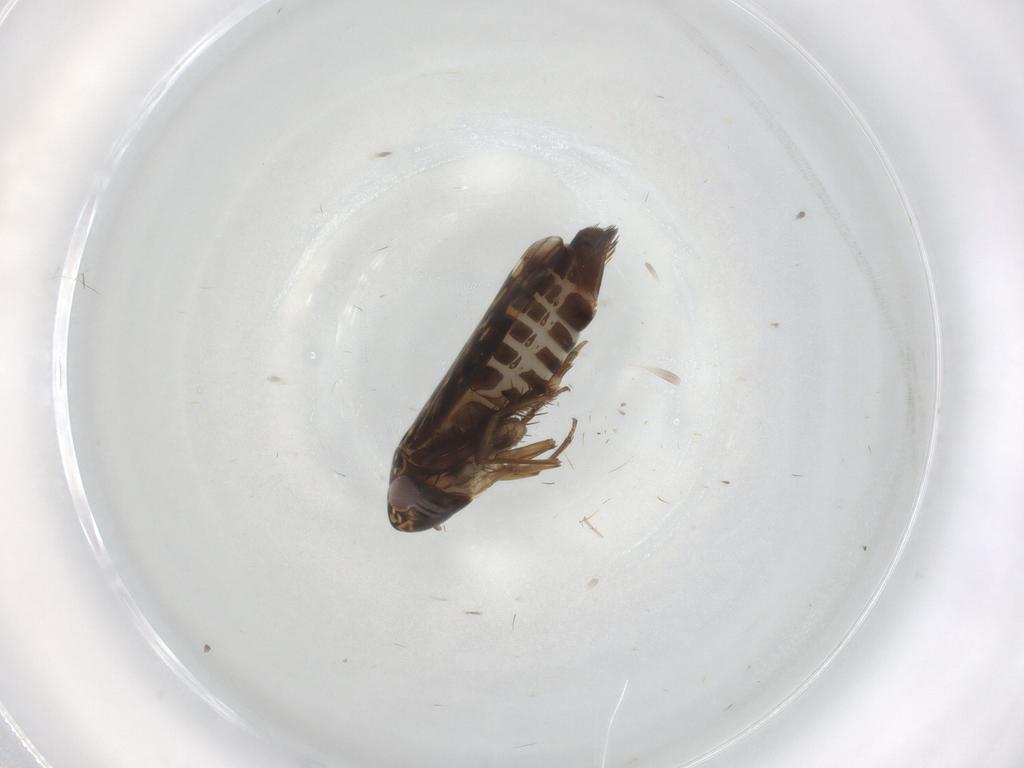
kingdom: Animalia
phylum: Arthropoda
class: Insecta
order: Hemiptera
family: Cicadellidae
